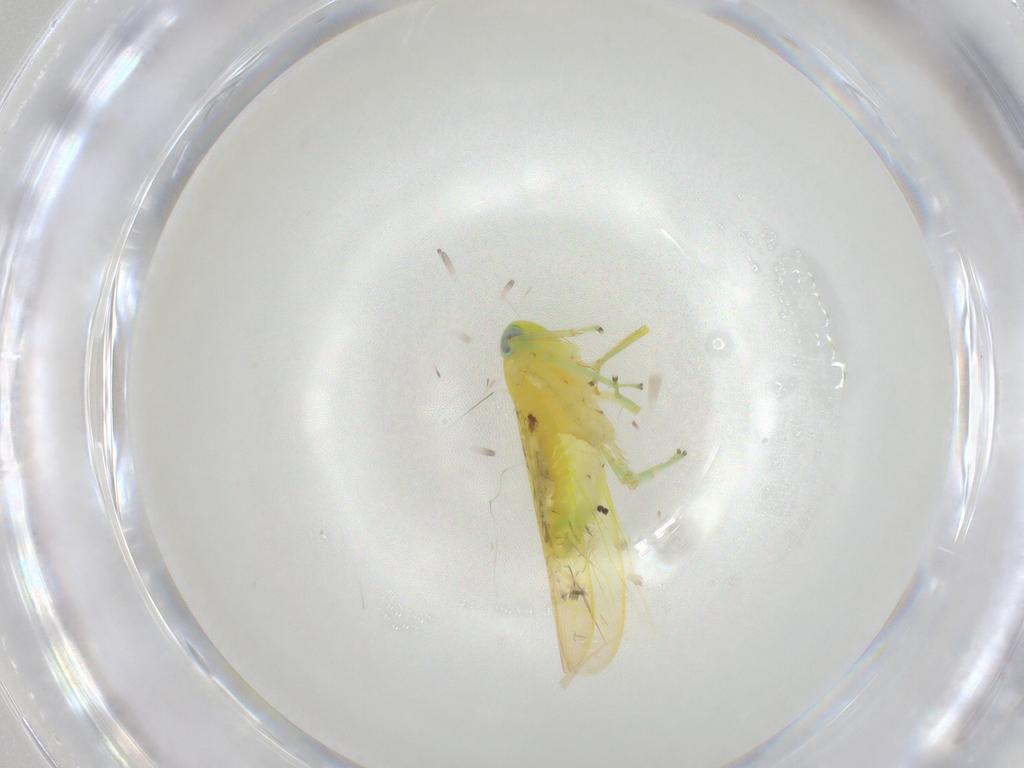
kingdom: Animalia
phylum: Arthropoda
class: Insecta
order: Hemiptera
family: Cicadellidae
